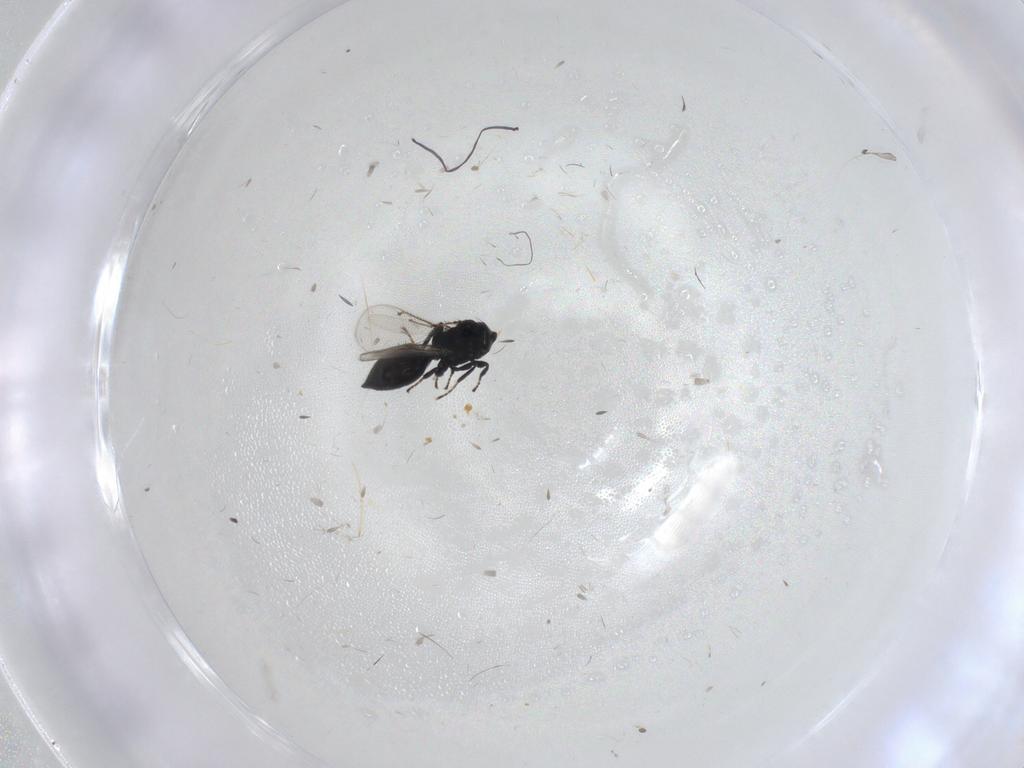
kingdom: Animalia
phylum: Arthropoda
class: Insecta
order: Hymenoptera
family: Eulophidae
